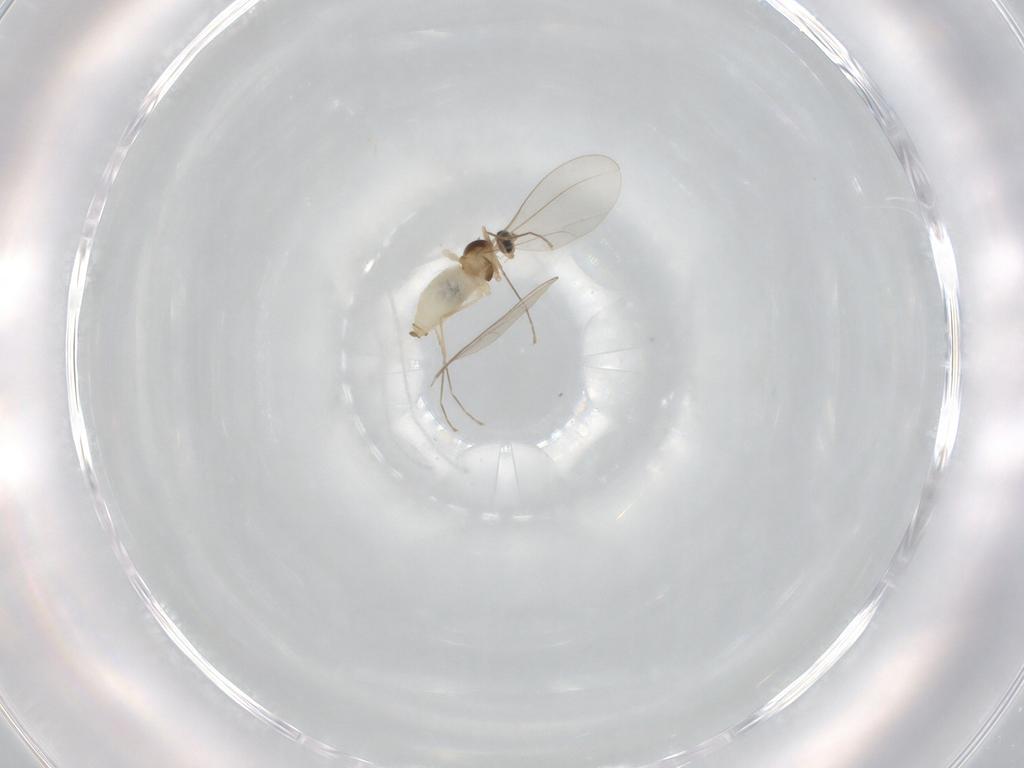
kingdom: Animalia
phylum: Arthropoda
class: Insecta
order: Diptera
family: Cecidomyiidae
